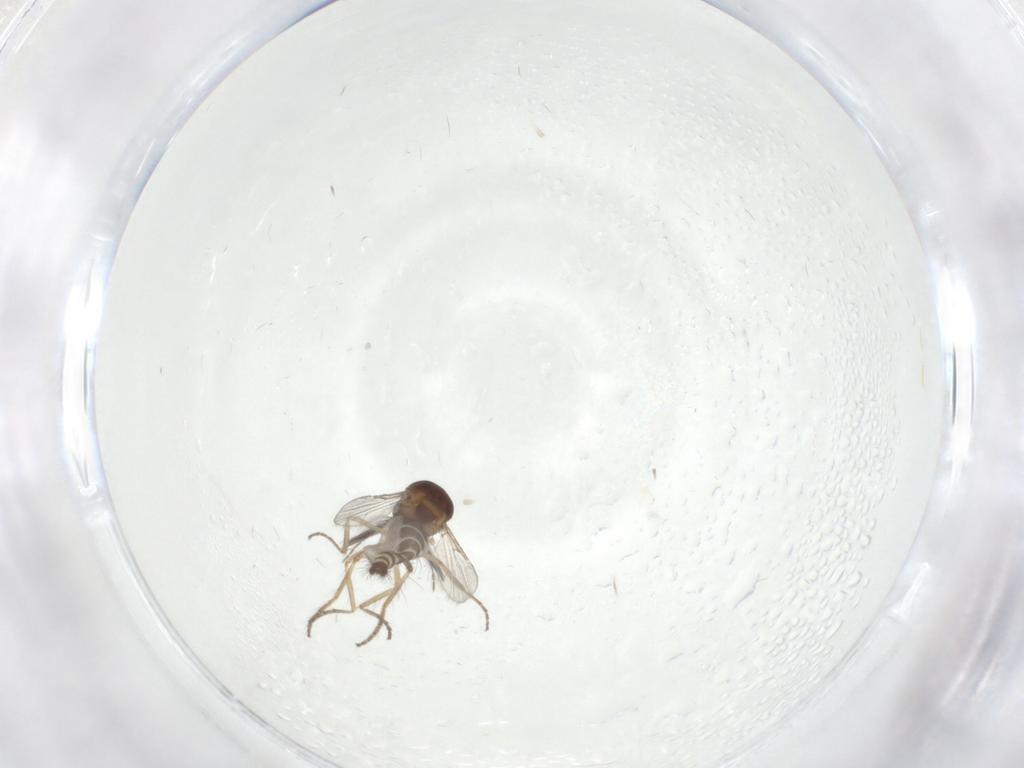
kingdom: Animalia
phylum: Arthropoda
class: Insecta
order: Diptera
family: Ceratopogonidae
